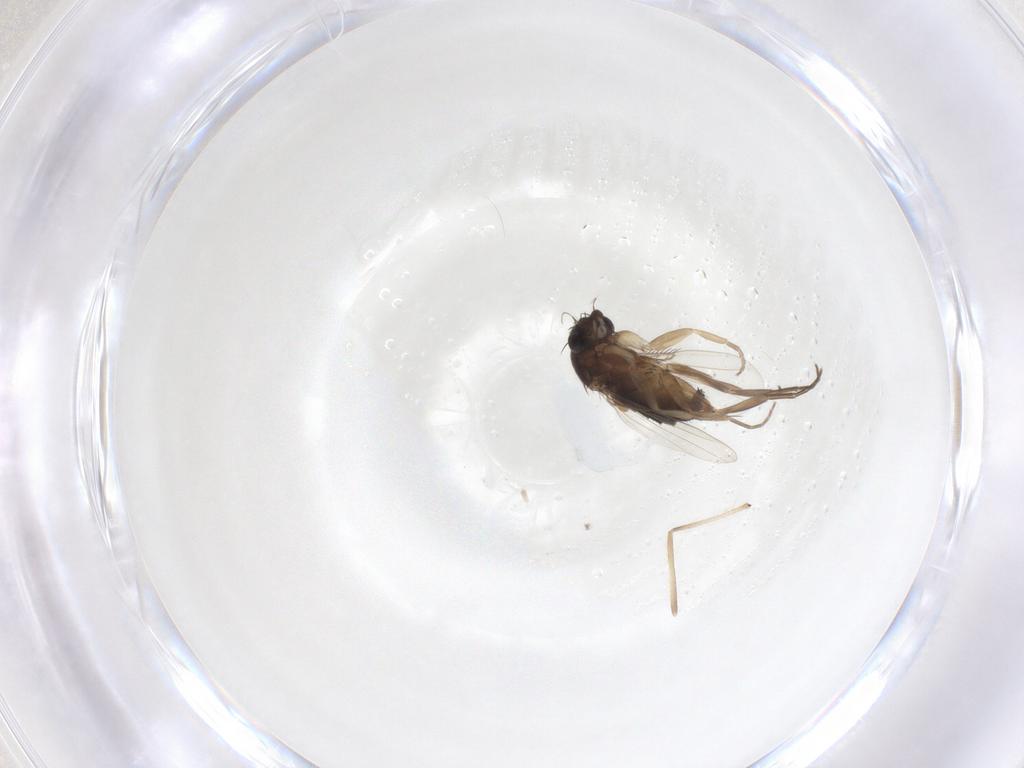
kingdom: Animalia
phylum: Arthropoda
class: Insecta
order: Diptera
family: Phoridae
